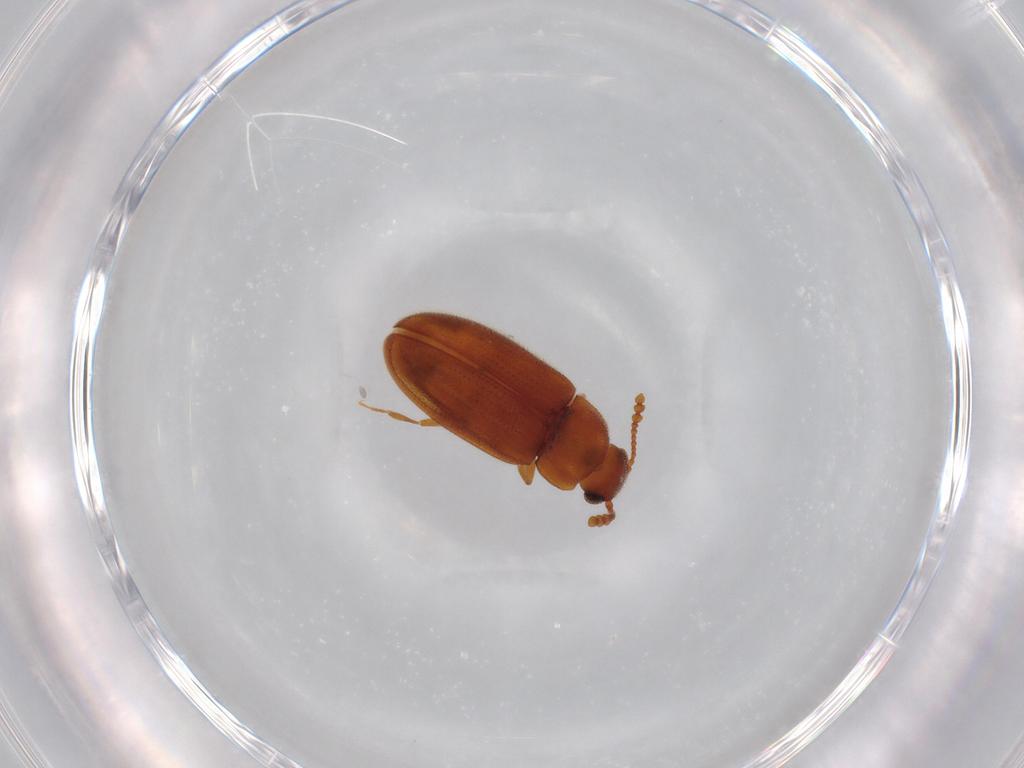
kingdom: Animalia
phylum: Arthropoda
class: Insecta
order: Coleoptera
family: Erotylidae
